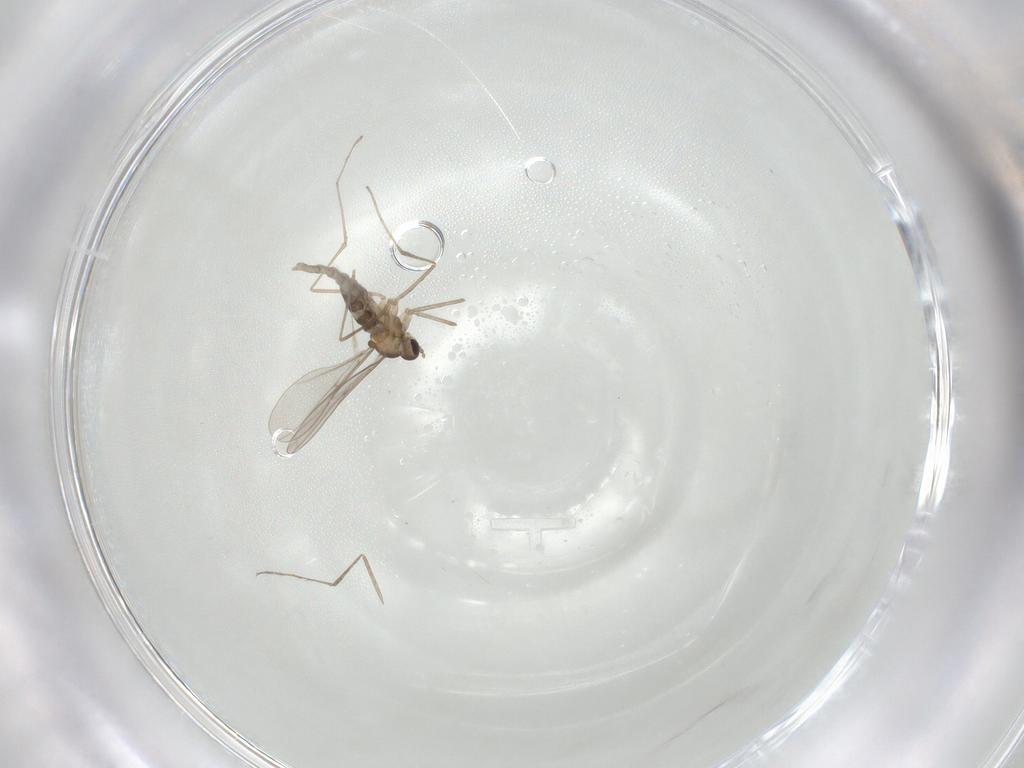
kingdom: Animalia
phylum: Arthropoda
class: Insecta
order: Diptera
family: Cecidomyiidae
